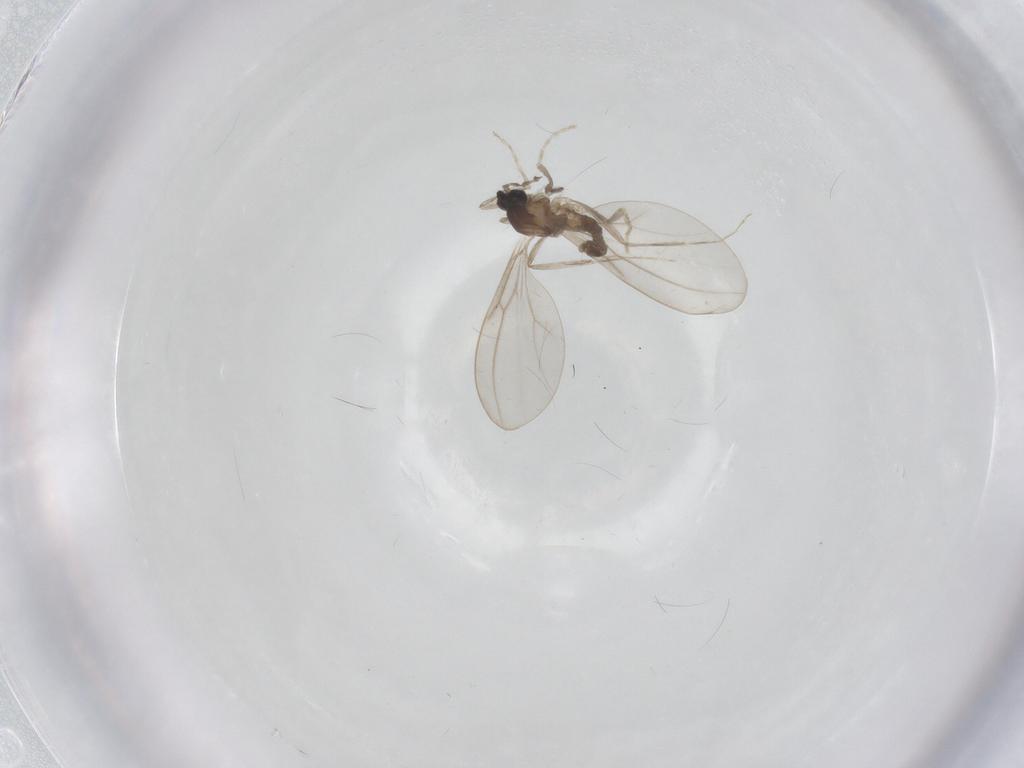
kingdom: Animalia
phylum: Arthropoda
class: Insecta
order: Diptera
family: Cecidomyiidae
